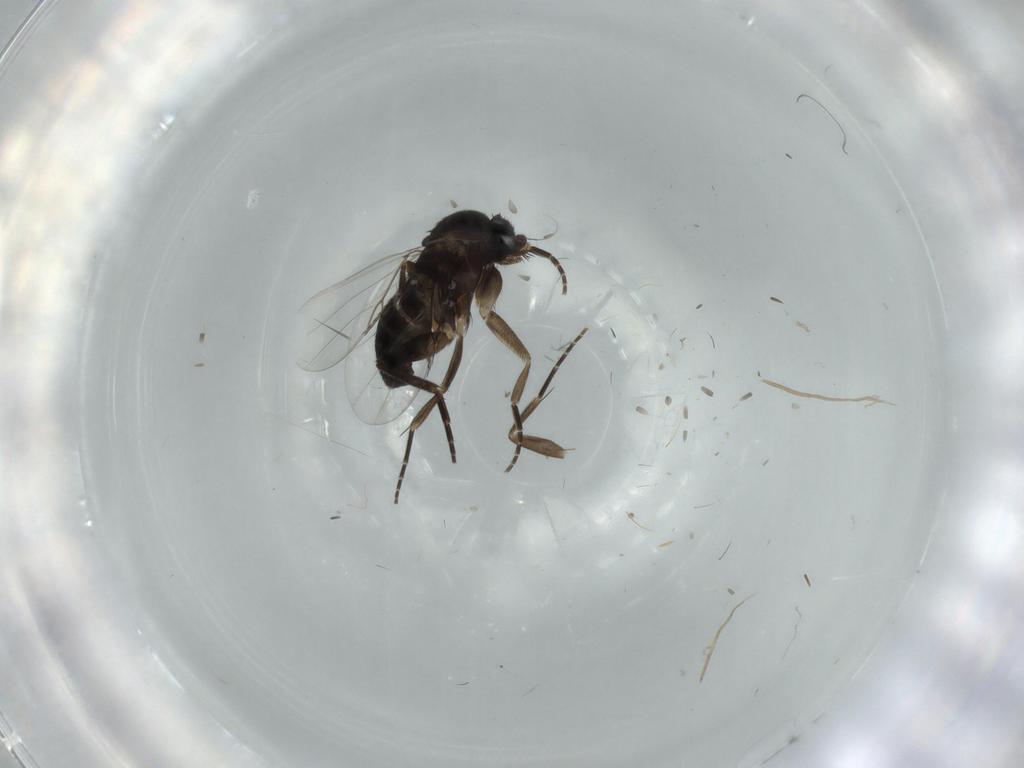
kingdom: Animalia
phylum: Arthropoda
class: Insecta
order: Diptera
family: Phoridae
